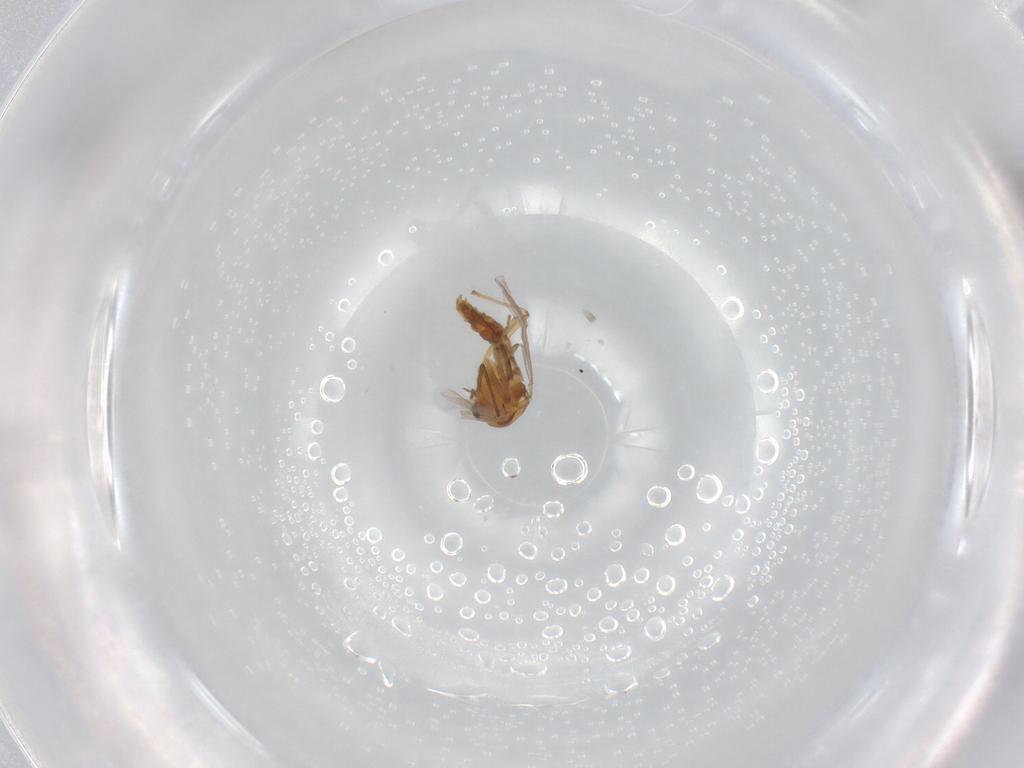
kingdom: Animalia
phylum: Arthropoda
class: Insecta
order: Diptera
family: Chironomidae
